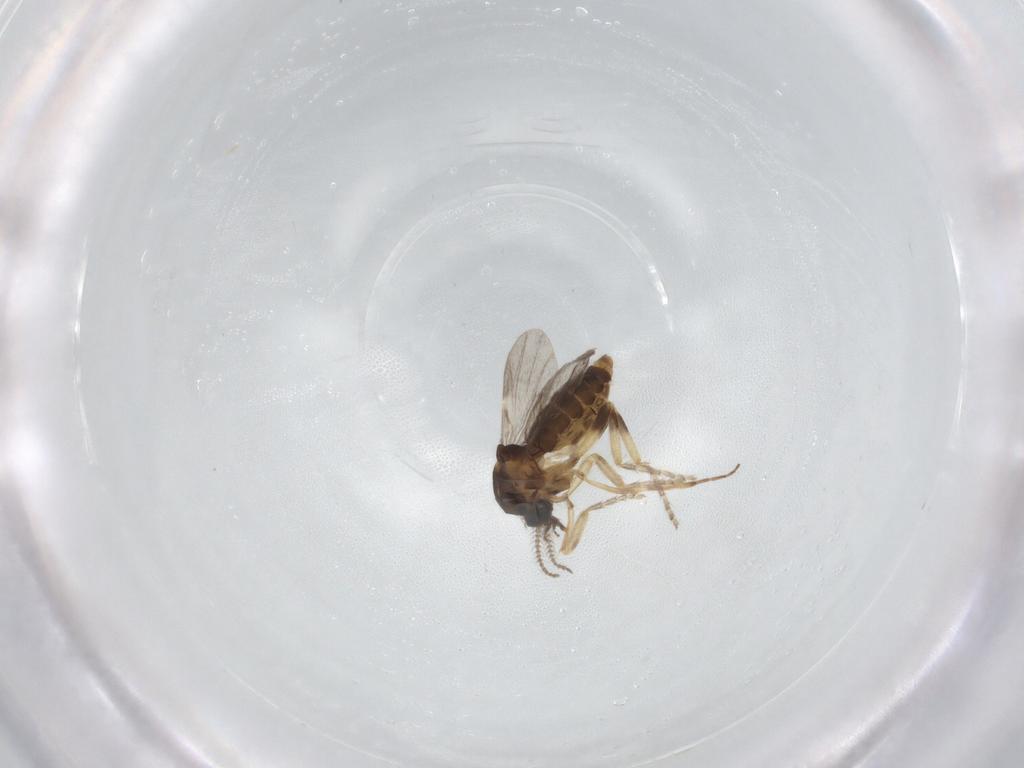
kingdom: Animalia
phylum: Arthropoda
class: Insecta
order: Diptera
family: Ceratopogonidae
